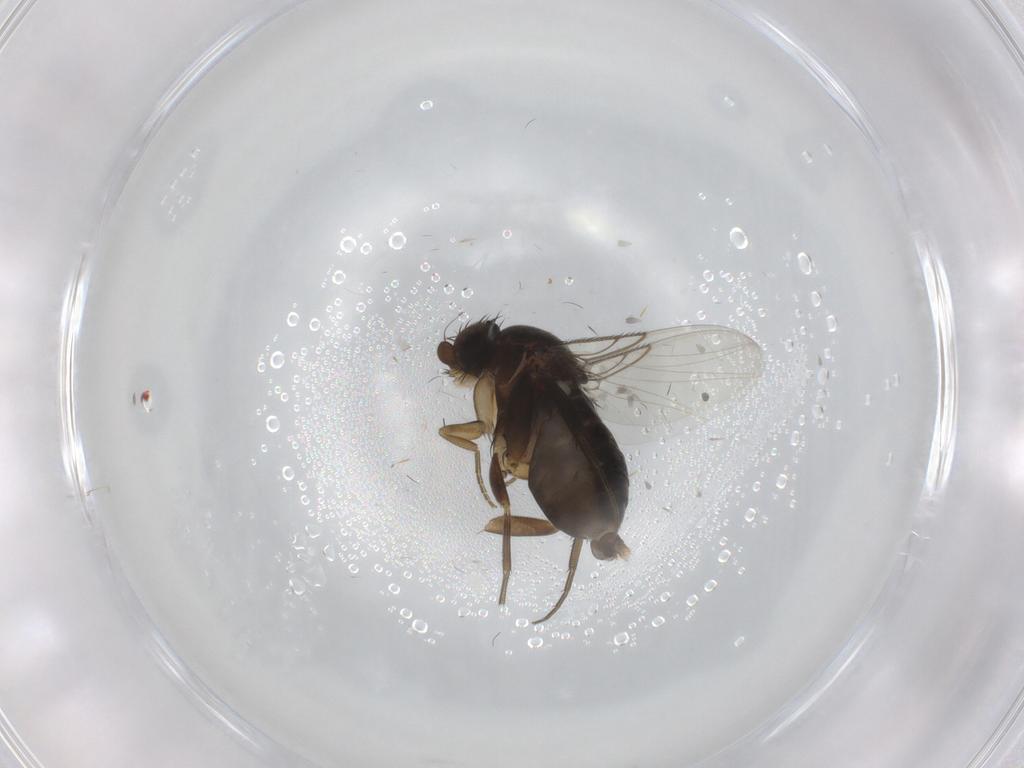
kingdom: Animalia
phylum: Arthropoda
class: Insecta
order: Diptera
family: Phoridae
